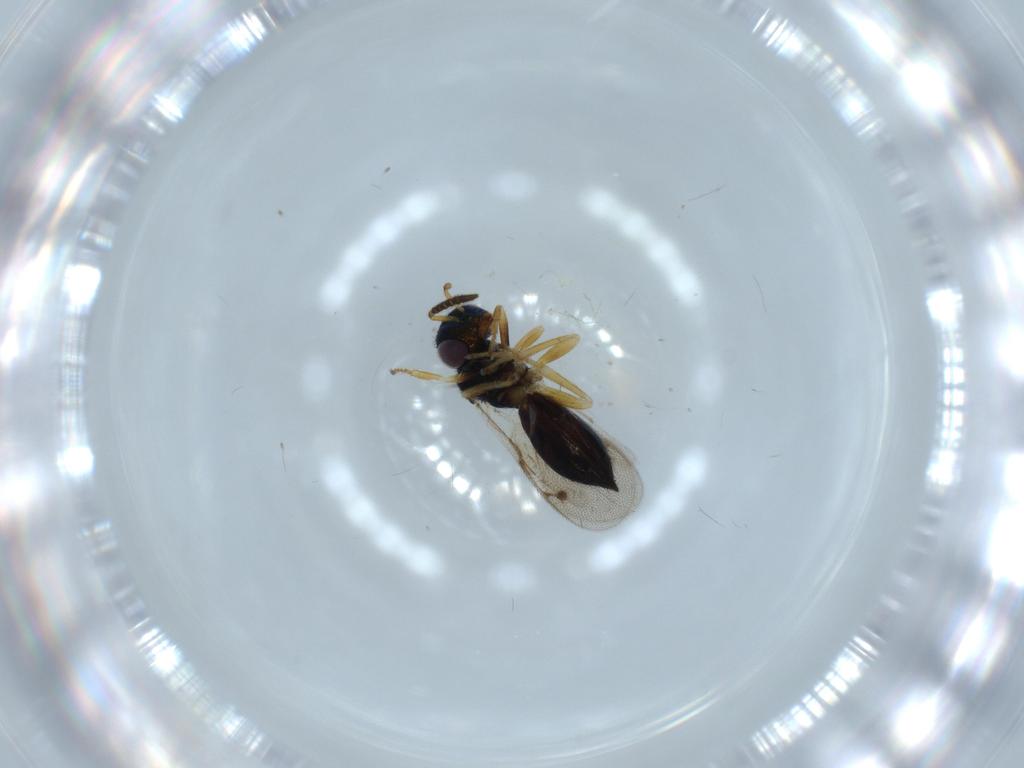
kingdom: Animalia
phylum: Arthropoda
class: Insecta
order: Hymenoptera
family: Pirenidae
